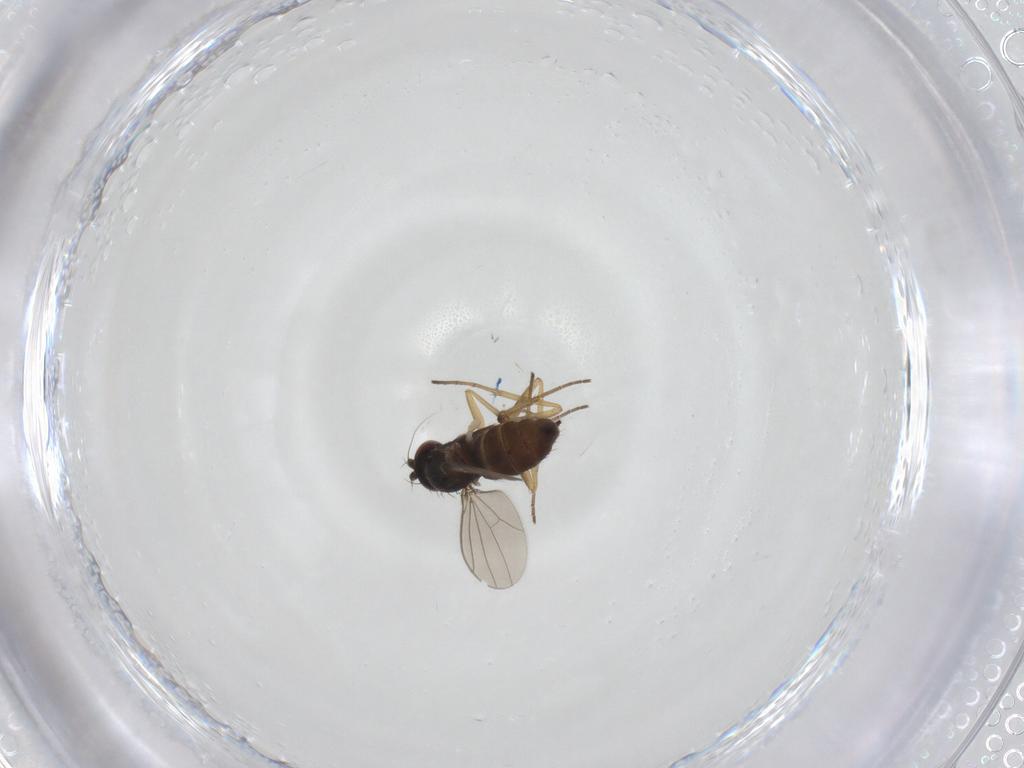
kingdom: Animalia
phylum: Arthropoda
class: Insecta
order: Diptera
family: Dolichopodidae
